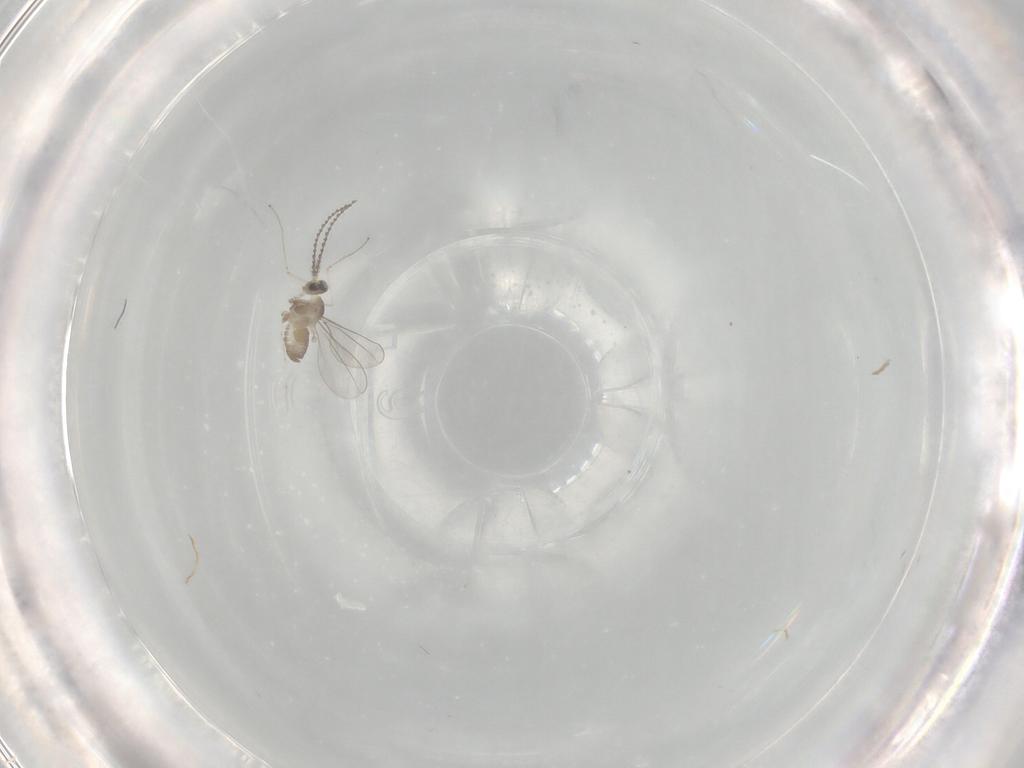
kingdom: Animalia
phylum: Arthropoda
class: Insecta
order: Diptera
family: Cecidomyiidae
